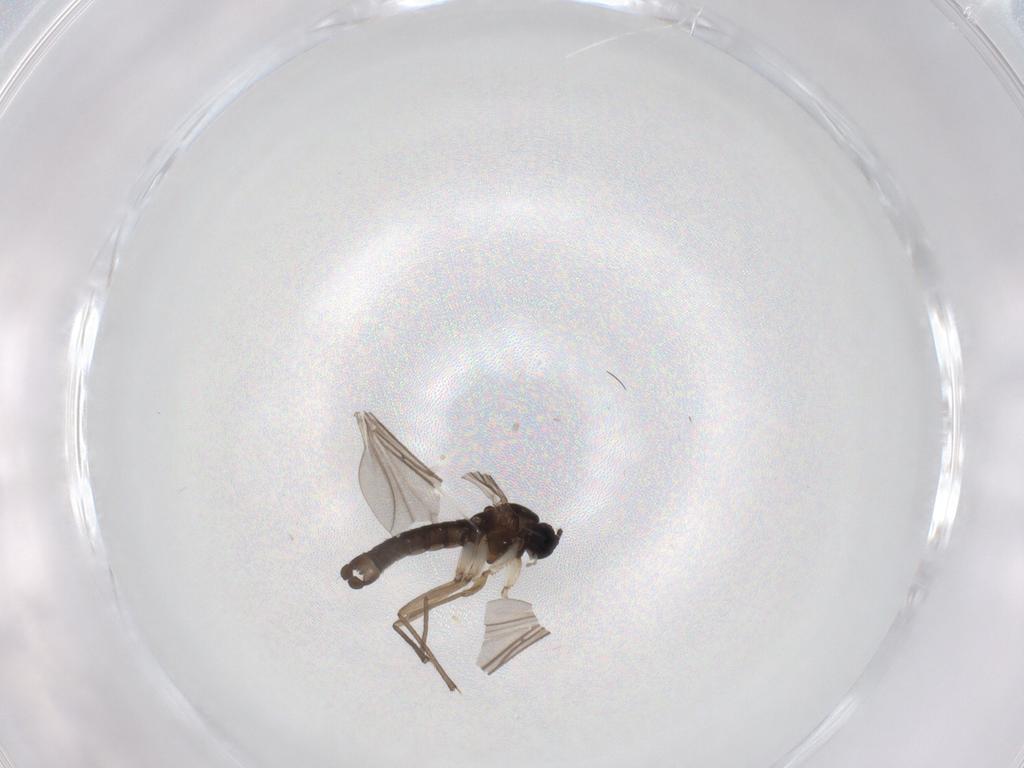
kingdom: Animalia
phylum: Arthropoda
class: Insecta
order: Diptera
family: Sciaridae
